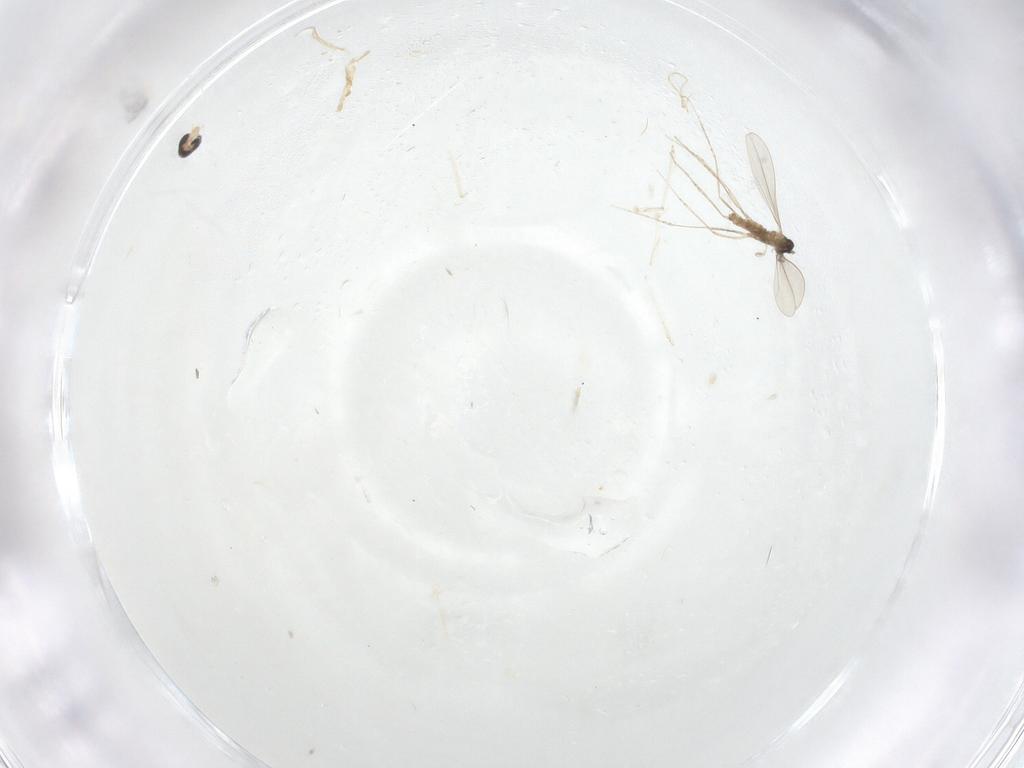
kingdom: Animalia
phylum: Arthropoda
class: Insecta
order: Diptera
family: Cecidomyiidae
